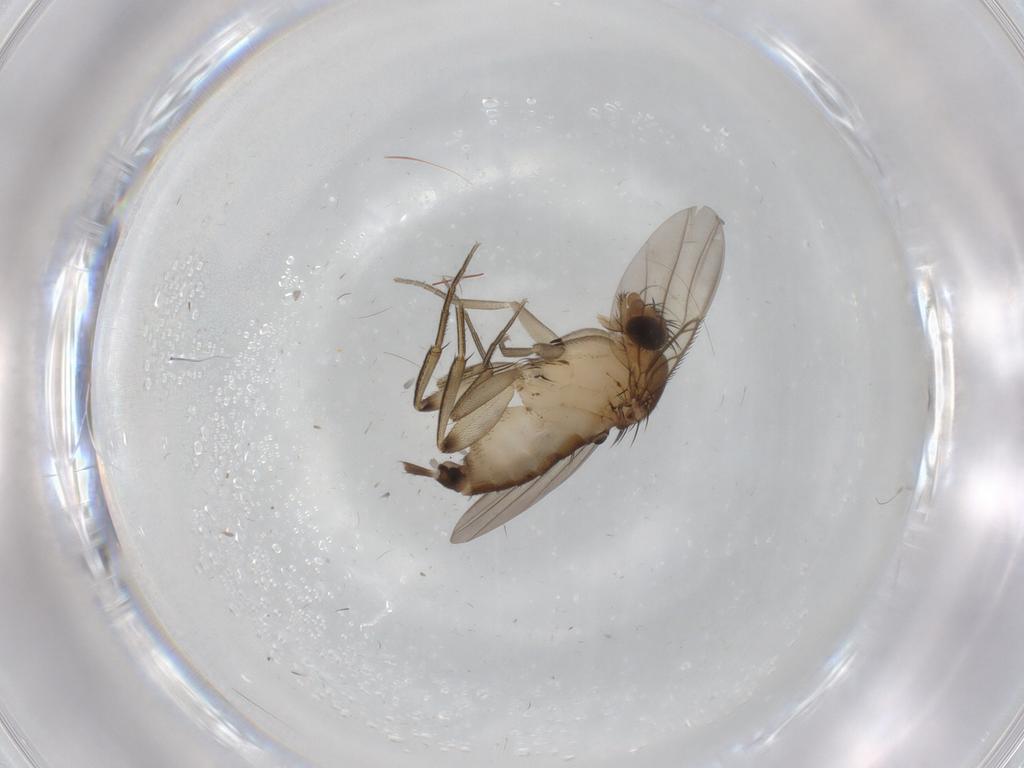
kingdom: Animalia
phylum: Arthropoda
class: Insecta
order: Diptera
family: Phoridae
